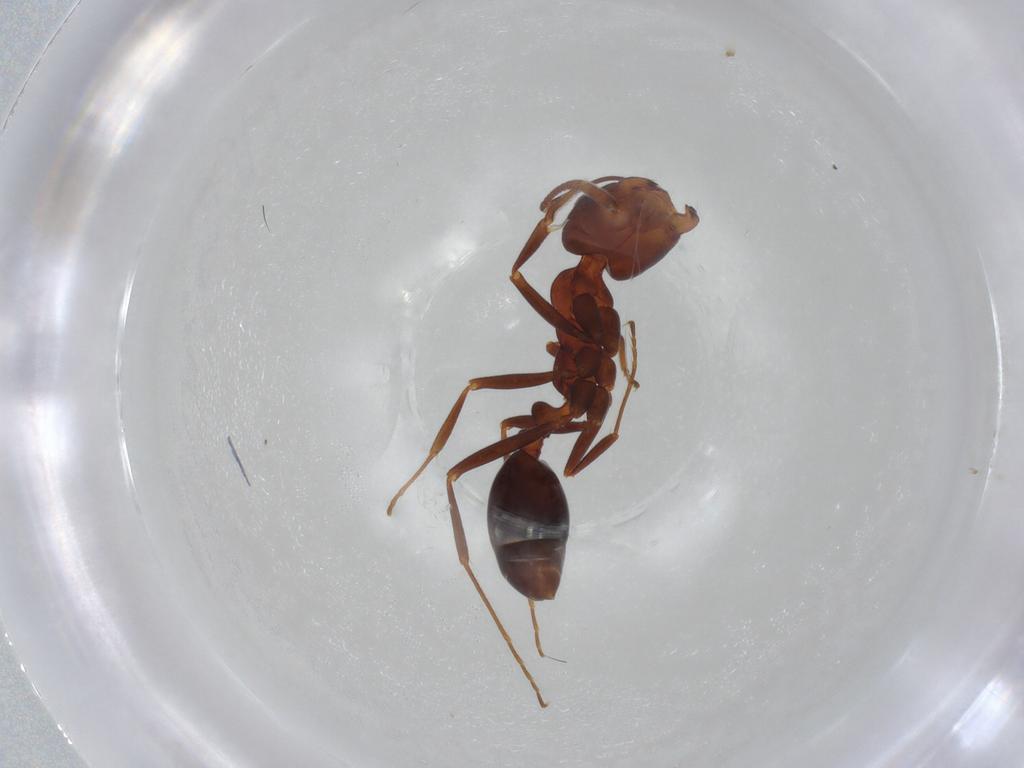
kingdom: Animalia
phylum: Arthropoda
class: Insecta
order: Hymenoptera
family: Formicidae
